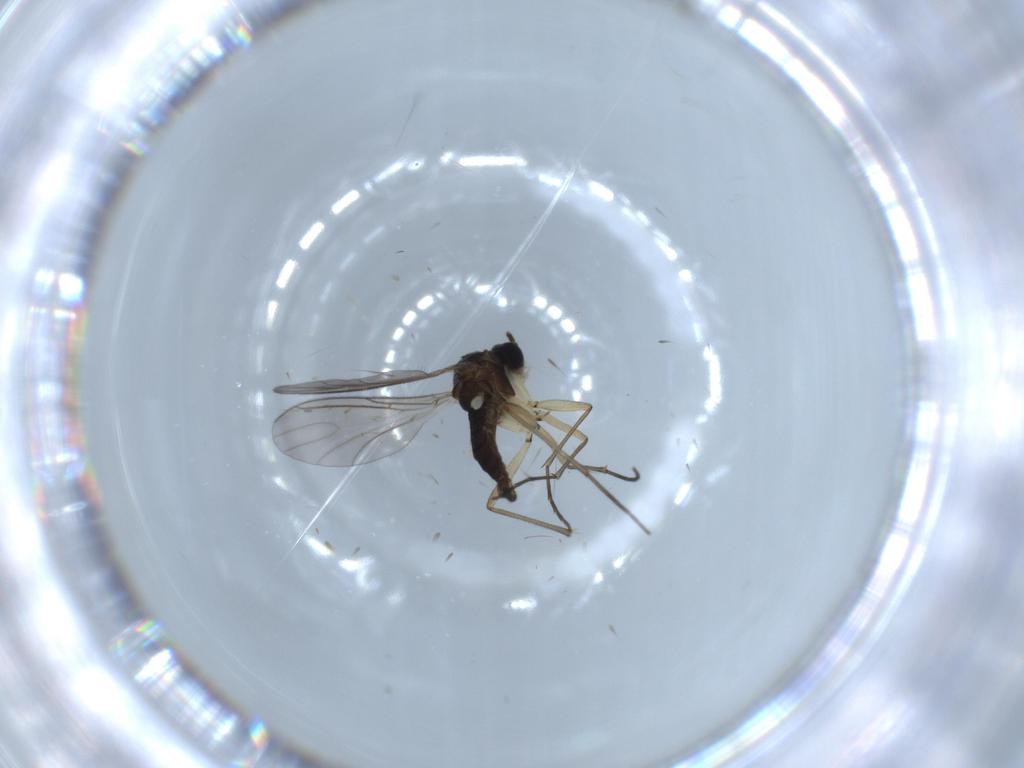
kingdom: Animalia
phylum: Arthropoda
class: Insecta
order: Diptera
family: Sciaridae
